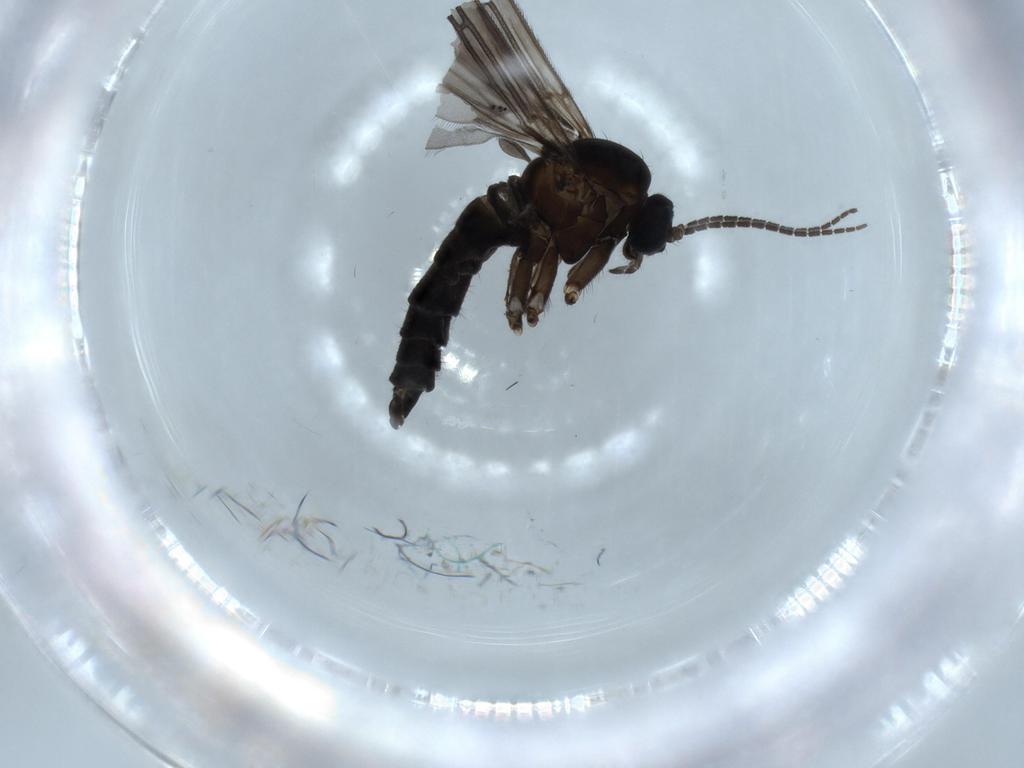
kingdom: Animalia
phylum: Arthropoda
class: Insecta
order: Diptera
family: Sciaridae
